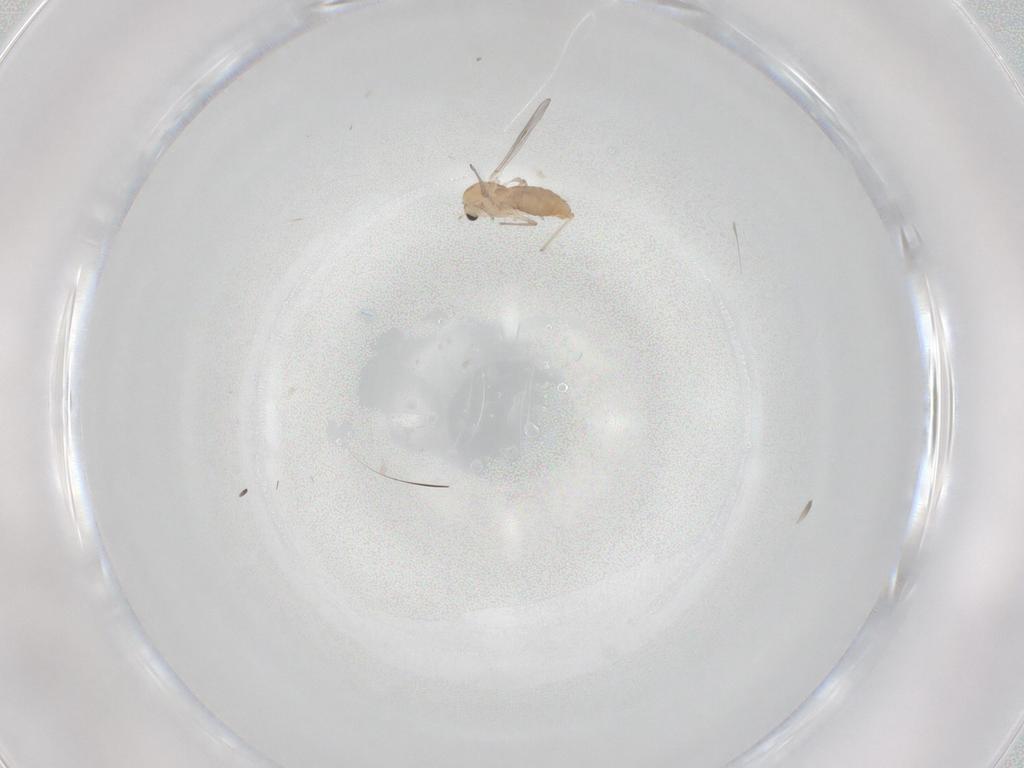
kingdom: Animalia
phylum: Arthropoda
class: Insecta
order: Diptera
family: Chironomidae
